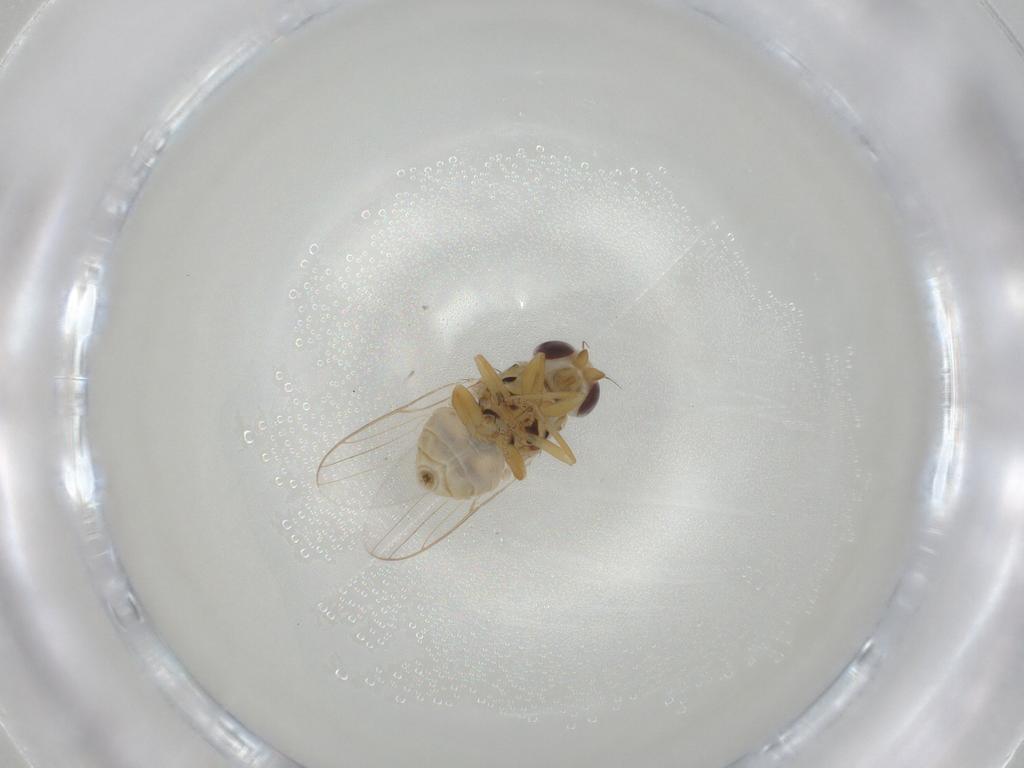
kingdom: Animalia
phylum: Arthropoda
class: Insecta
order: Diptera
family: Chloropidae
